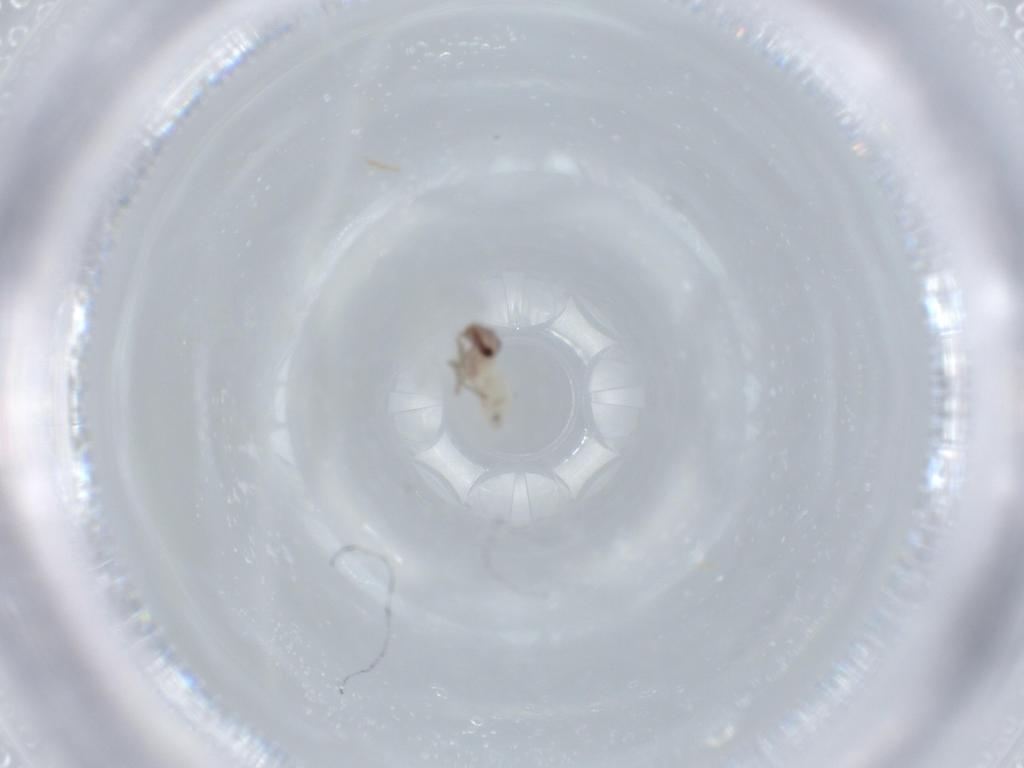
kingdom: Animalia
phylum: Arthropoda
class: Insecta
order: Psocodea
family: Lepidopsocidae
